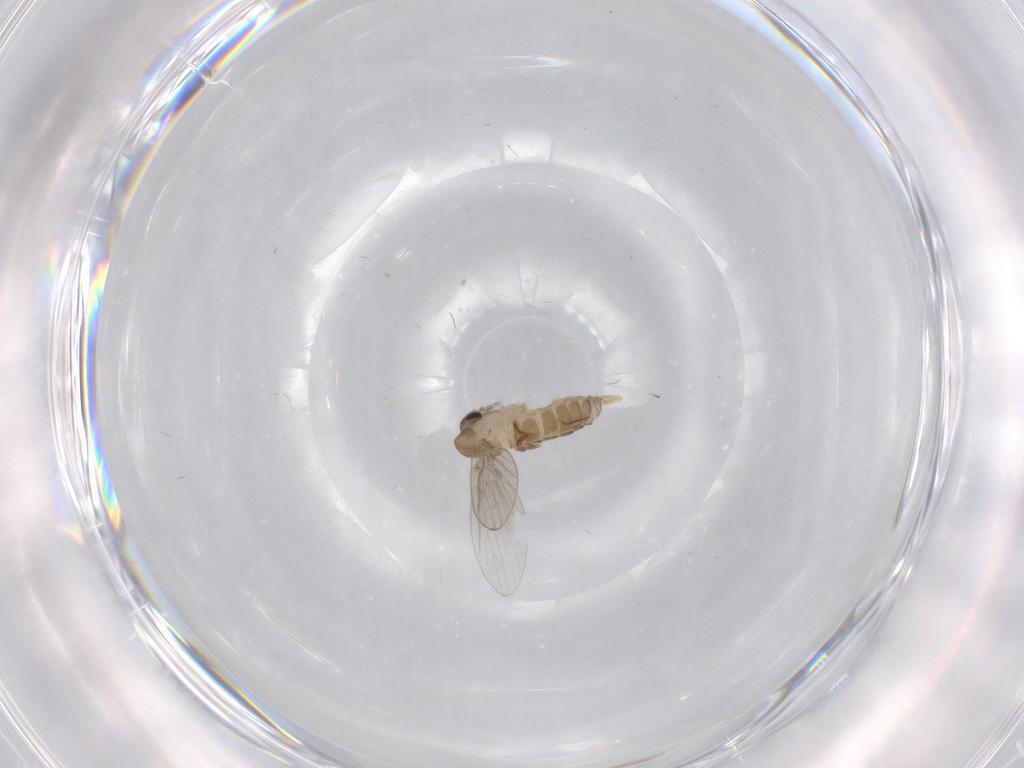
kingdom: Animalia
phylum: Arthropoda
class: Insecta
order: Diptera
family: Psychodidae
